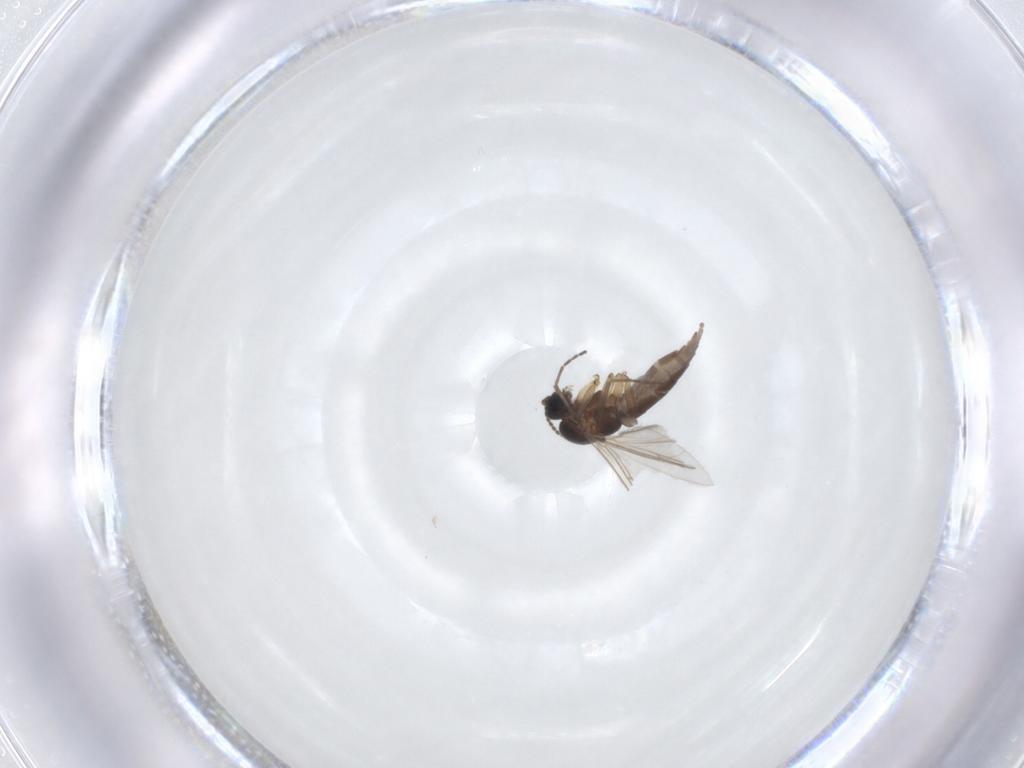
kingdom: Animalia
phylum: Arthropoda
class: Insecta
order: Diptera
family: Sciaridae
